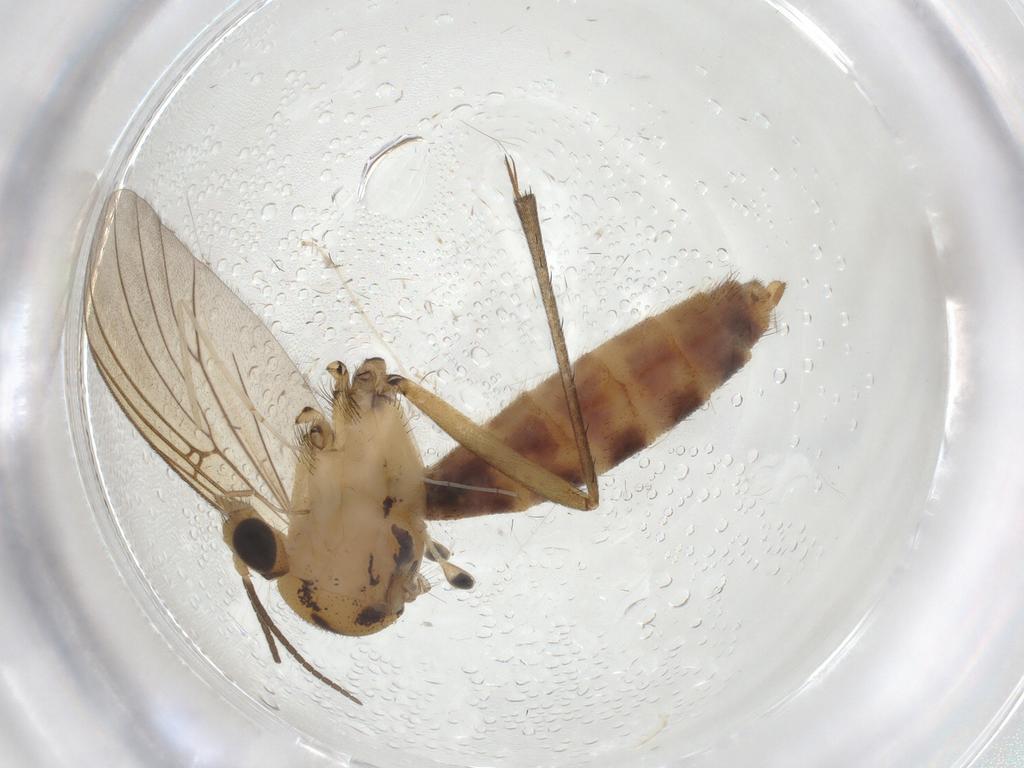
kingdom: Animalia
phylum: Arthropoda
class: Insecta
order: Diptera
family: Mycetophilidae
